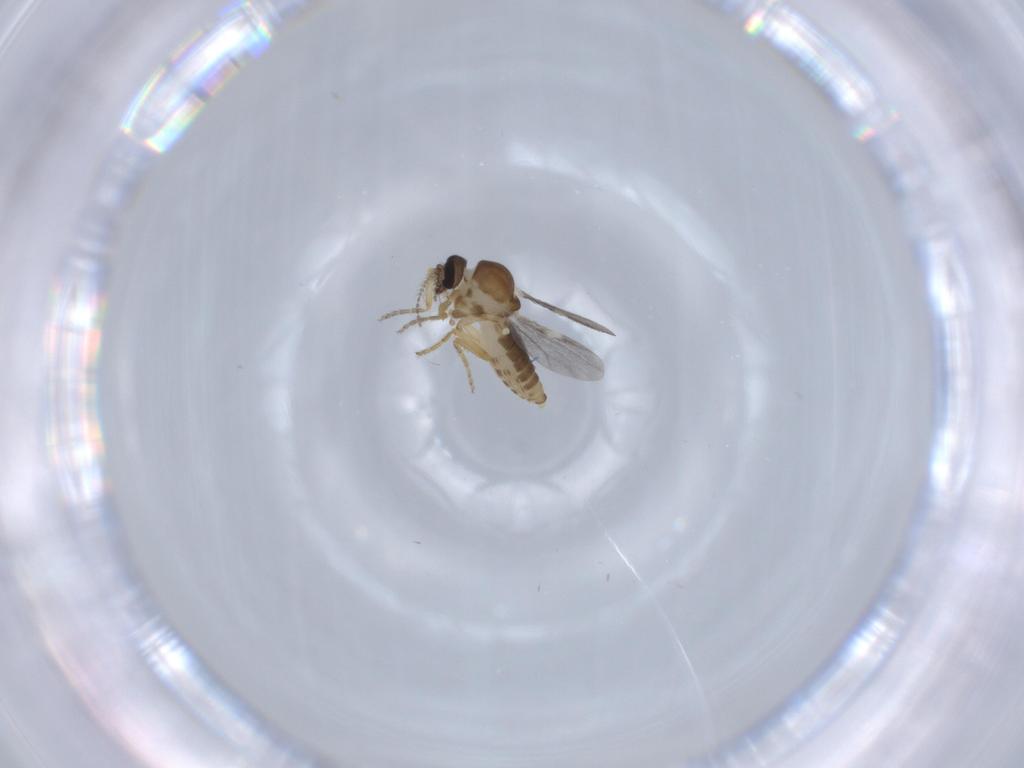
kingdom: Animalia
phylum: Arthropoda
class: Insecta
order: Diptera
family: Ceratopogonidae
